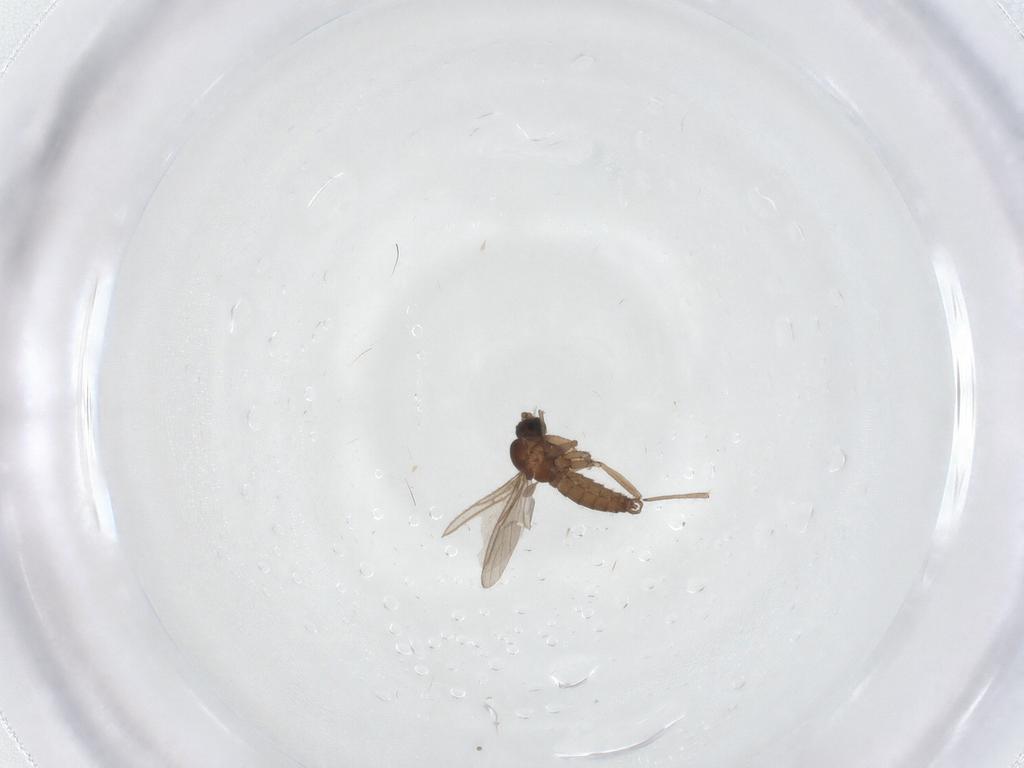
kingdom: Animalia
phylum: Arthropoda
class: Insecta
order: Diptera
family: Sciaridae
